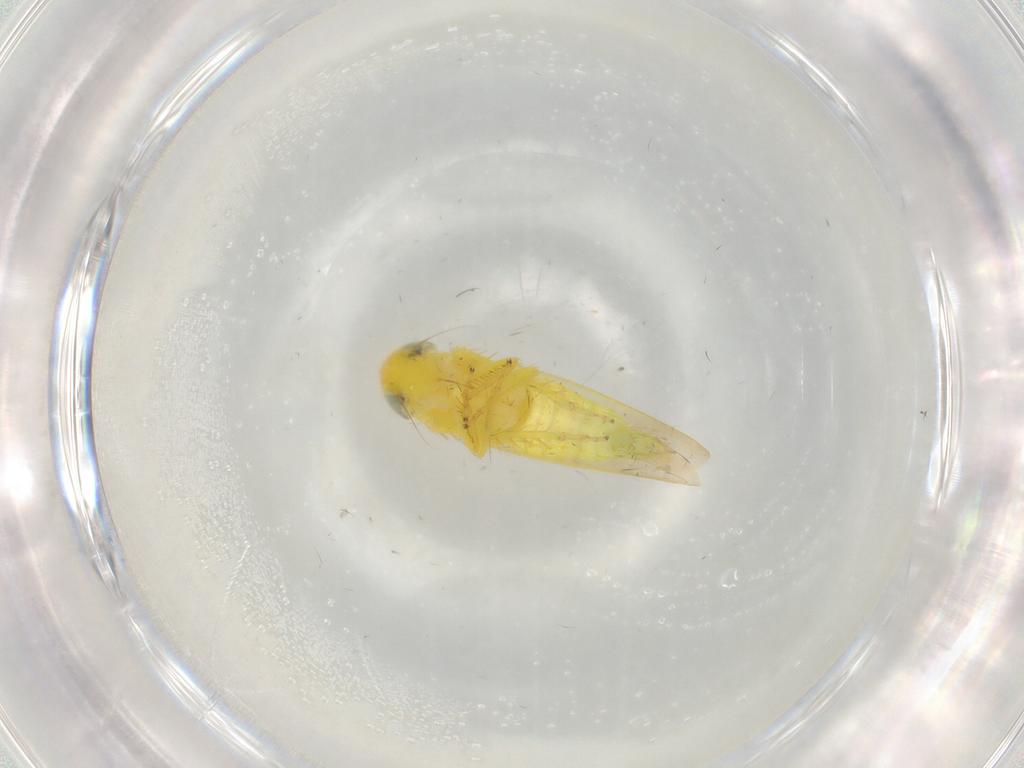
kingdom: Animalia
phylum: Arthropoda
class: Insecta
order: Hemiptera
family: Cicadellidae
